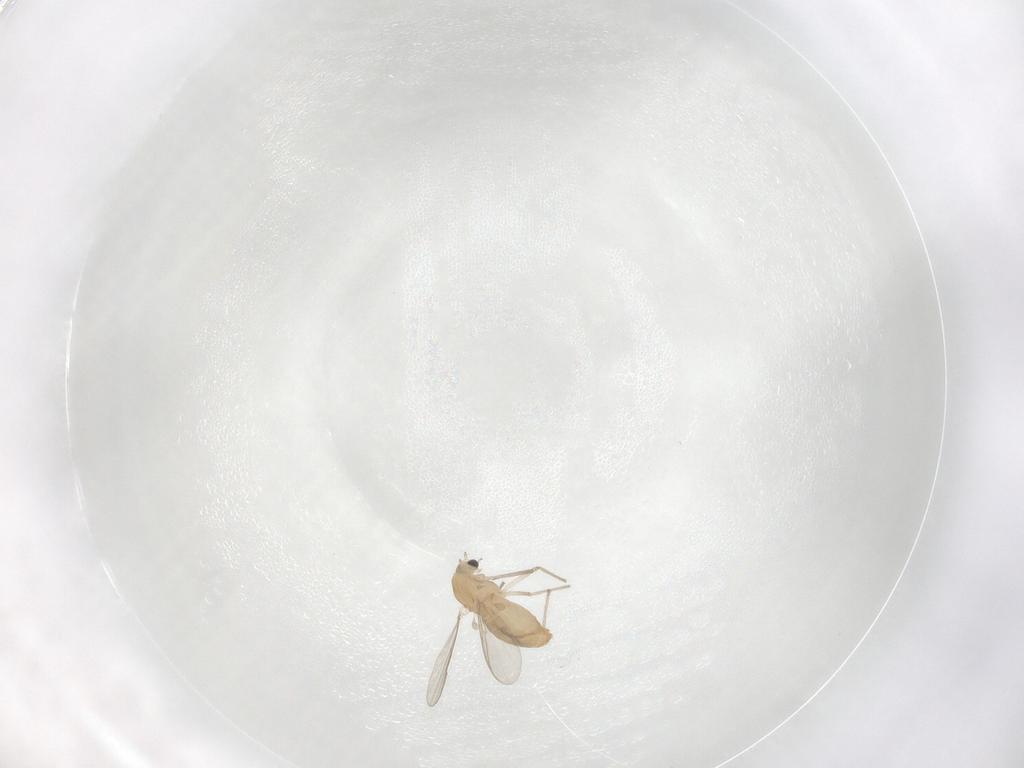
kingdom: Animalia
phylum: Arthropoda
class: Insecta
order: Diptera
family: Chironomidae
